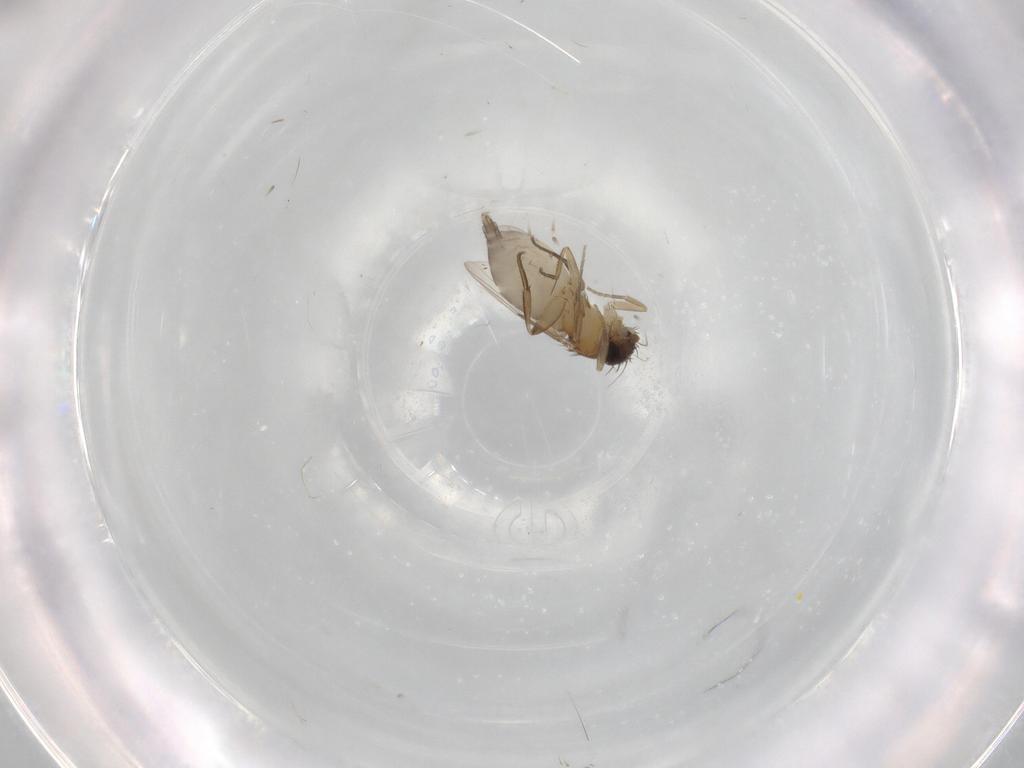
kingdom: Animalia
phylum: Arthropoda
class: Insecta
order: Diptera
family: Phoridae
